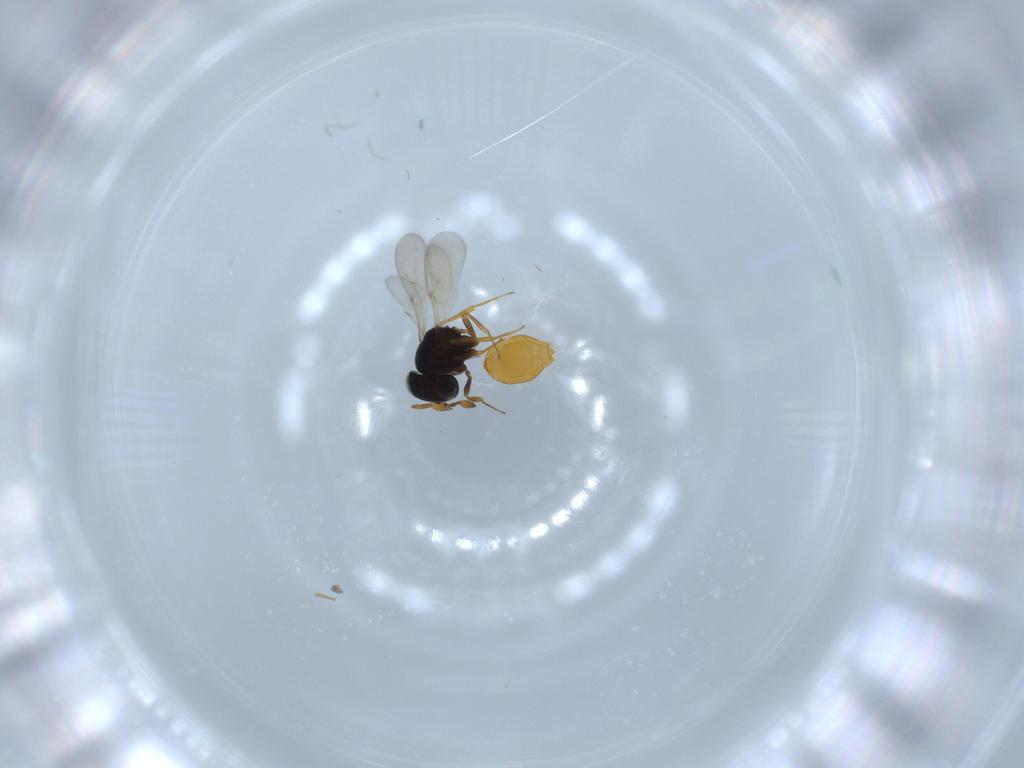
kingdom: Animalia
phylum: Arthropoda
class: Insecta
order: Hymenoptera
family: Scelionidae
